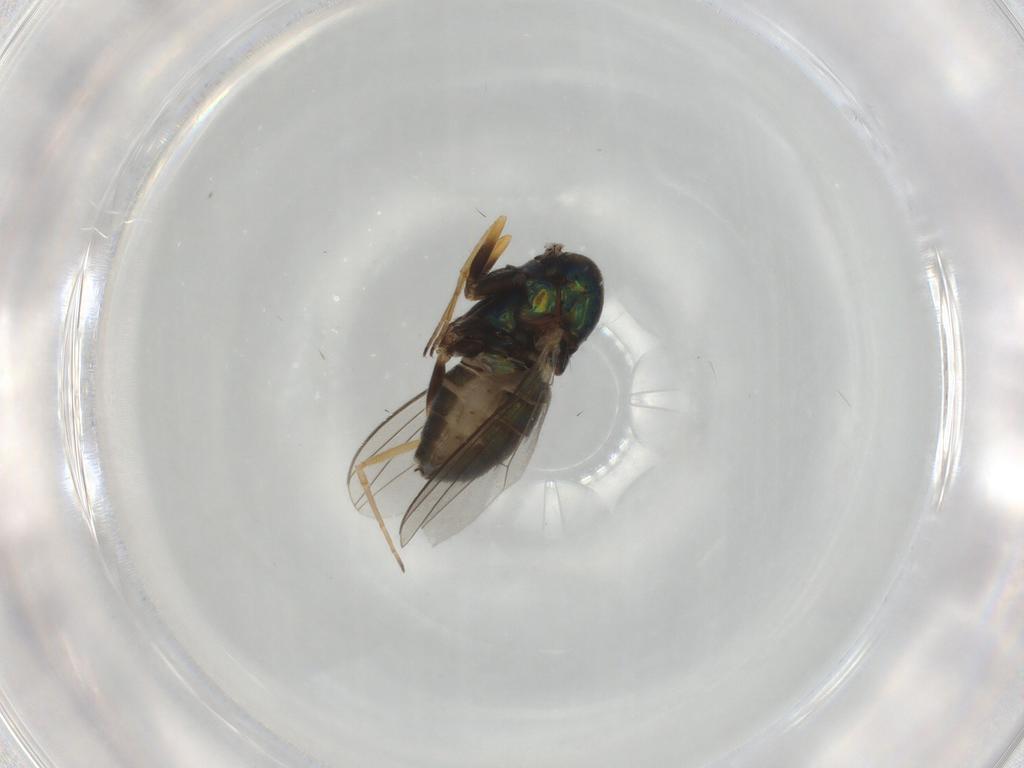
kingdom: Animalia
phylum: Arthropoda
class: Insecta
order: Diptera
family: Dolichopodidae
